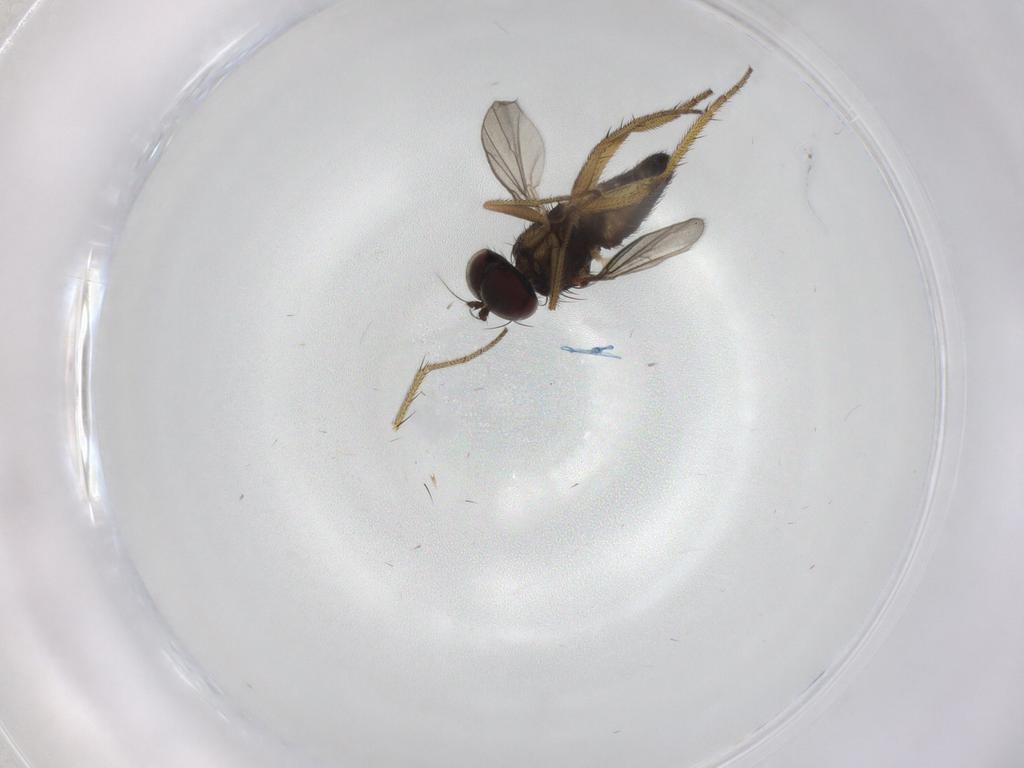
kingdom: Animalia
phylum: Arthropoda
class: Insecta
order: Diptera
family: Dolichopodidae
